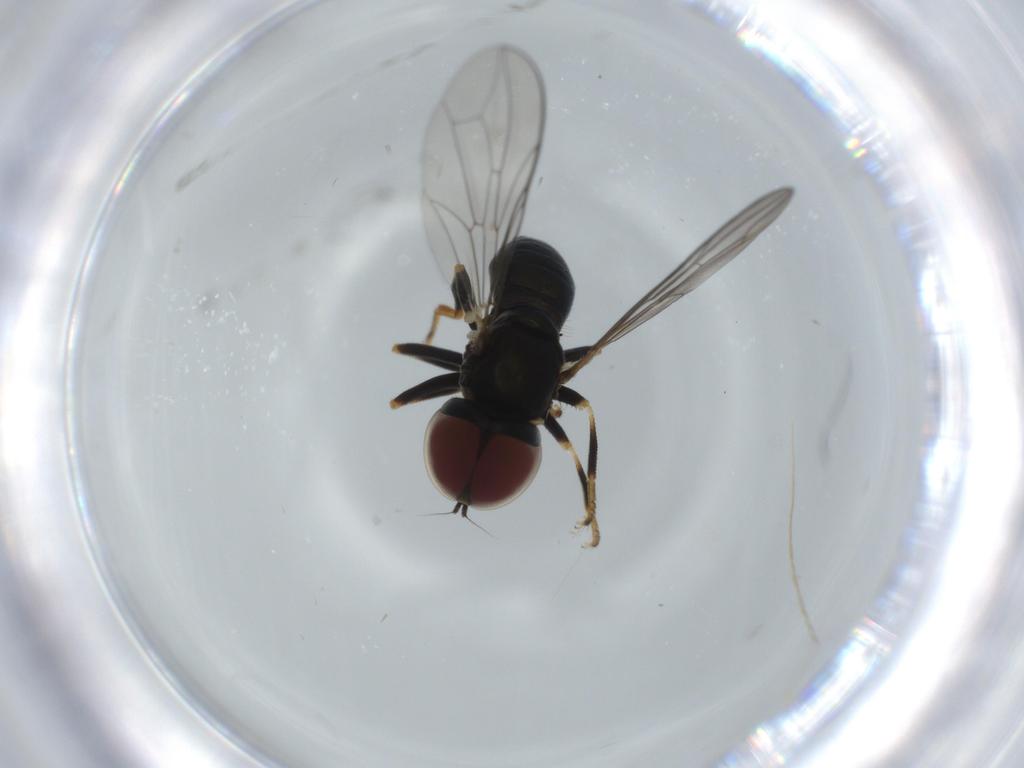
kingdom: Animalia
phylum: Arthropoda
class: Insecta
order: Diptera
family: Pipunculidae
